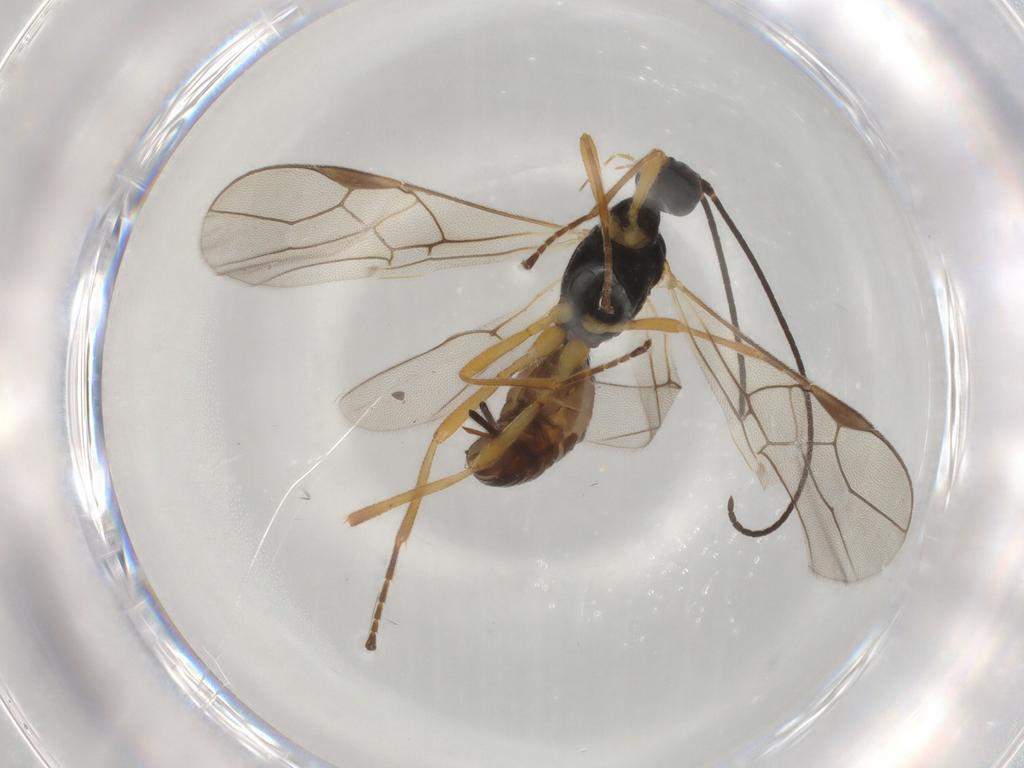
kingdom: Animalia
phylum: Arthropoda
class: Insecta
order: Hymenoptera
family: Braconidae
